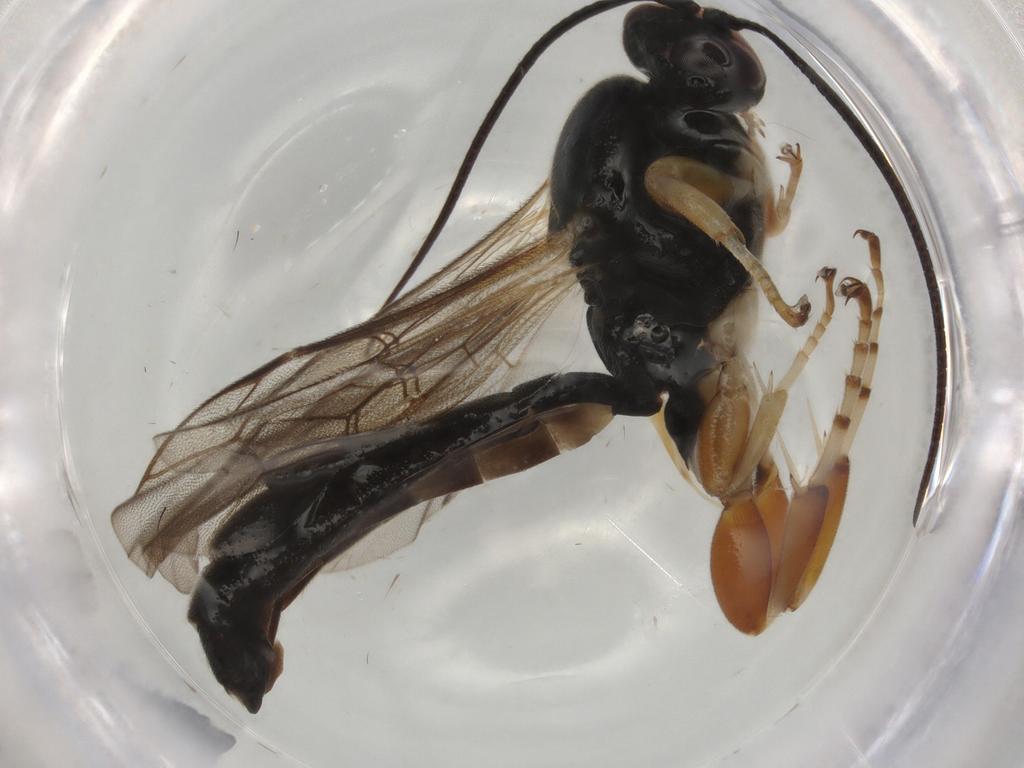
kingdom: Animalia
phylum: Arthropoda
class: Insecta
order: Hymenoptera
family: Ichneumonidae
